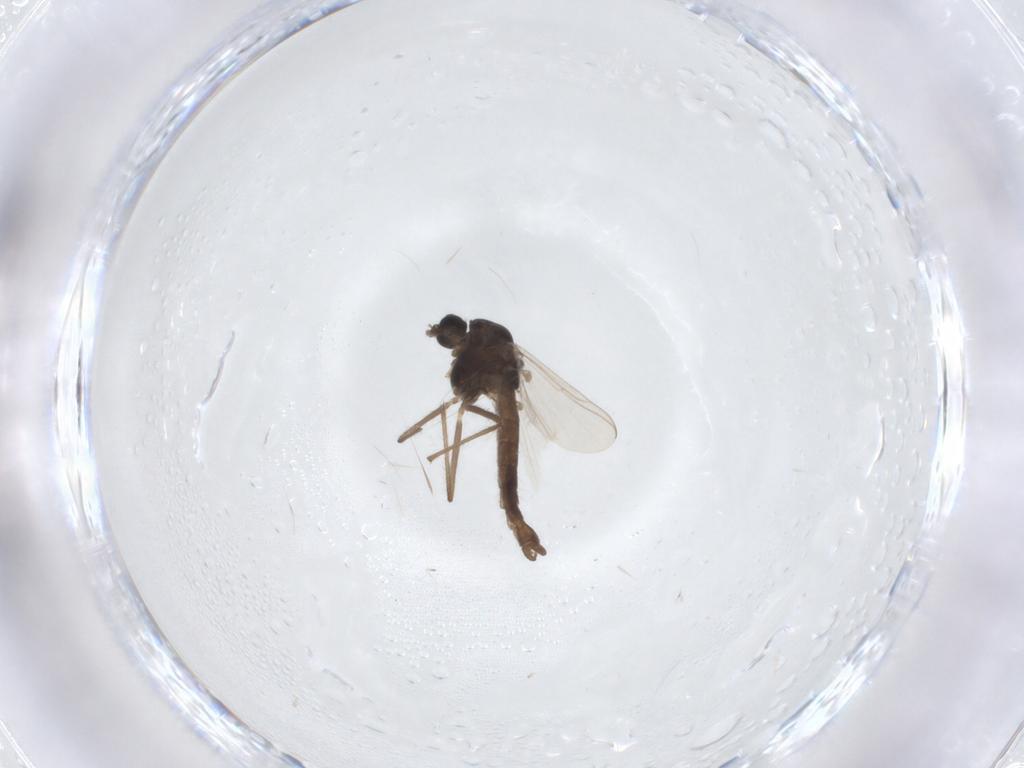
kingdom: Animalia
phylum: Arthropoda
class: Insecta
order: Diptera
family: Chironomidae
